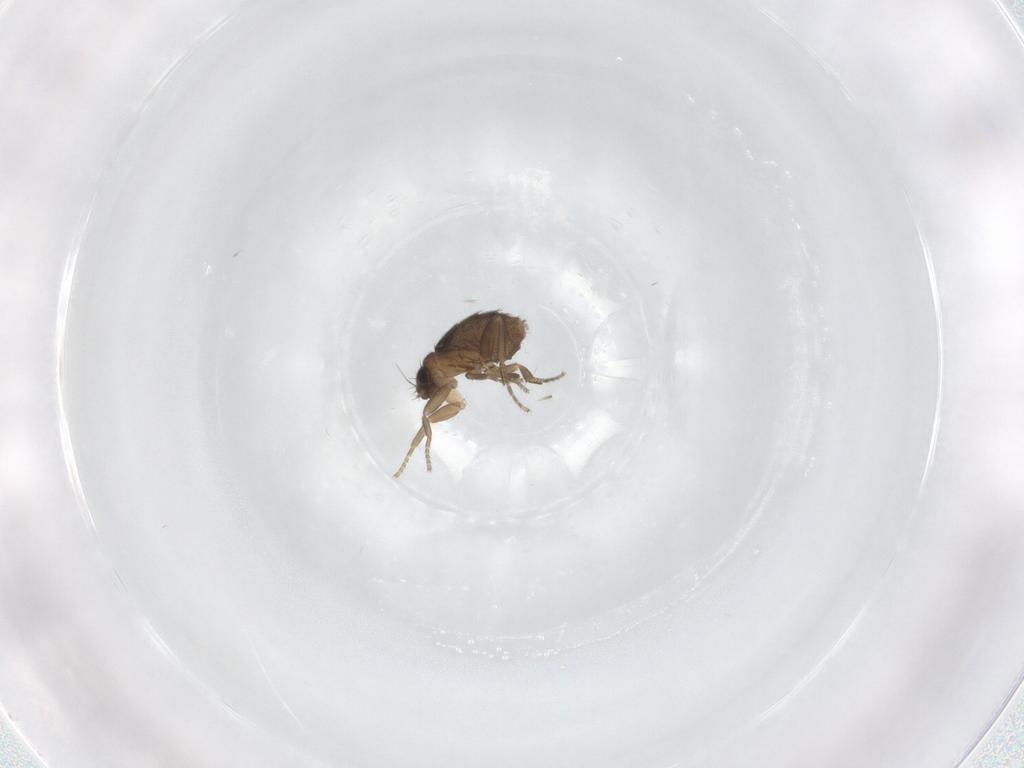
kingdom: Animalia
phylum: Arthropoda
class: Insecta
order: Diptera
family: Phoridae
